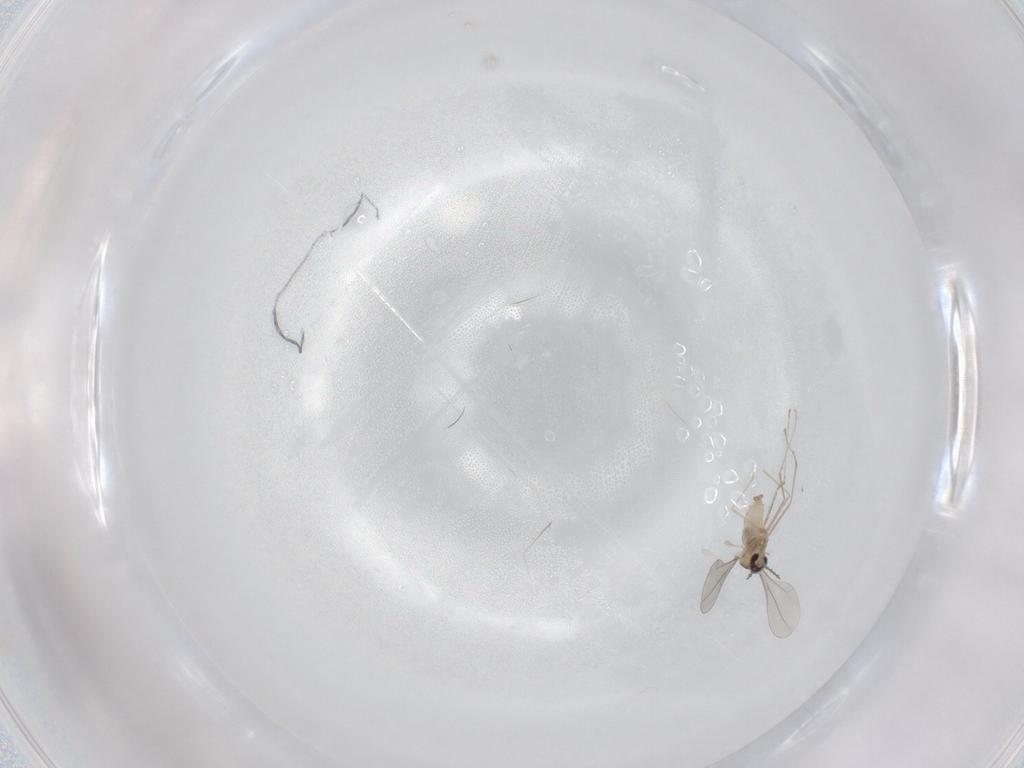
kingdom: Animalia
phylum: Arthropoda
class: Insecta
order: Diptera
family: Cecidomyiidae
